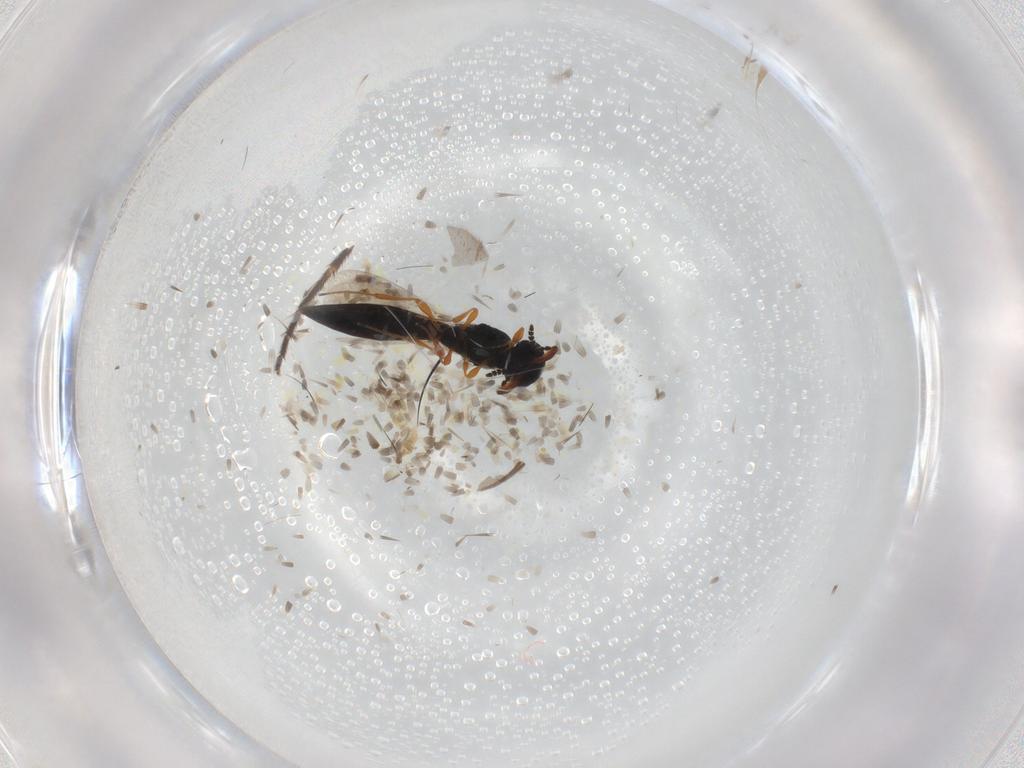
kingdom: Animalia
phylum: Arthropoda
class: Insecta
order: Hymenoptera
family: Platygastridae
